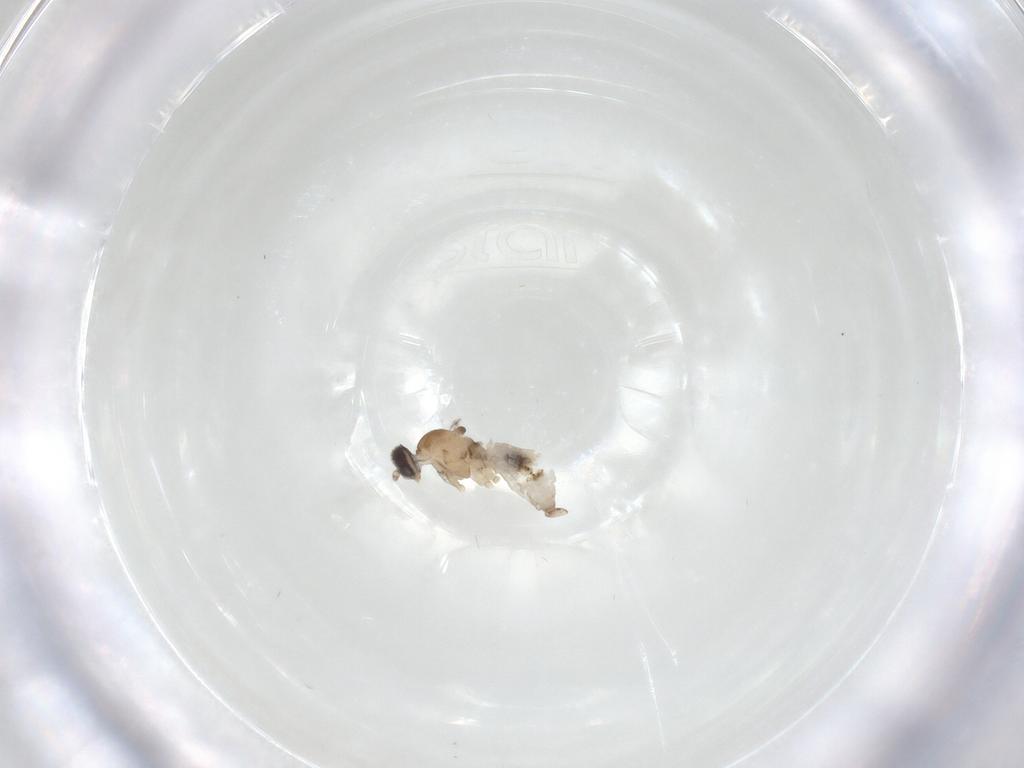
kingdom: Animalia
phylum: Arthropoda
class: Insecta
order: Diptera
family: Cecidomyiidae
